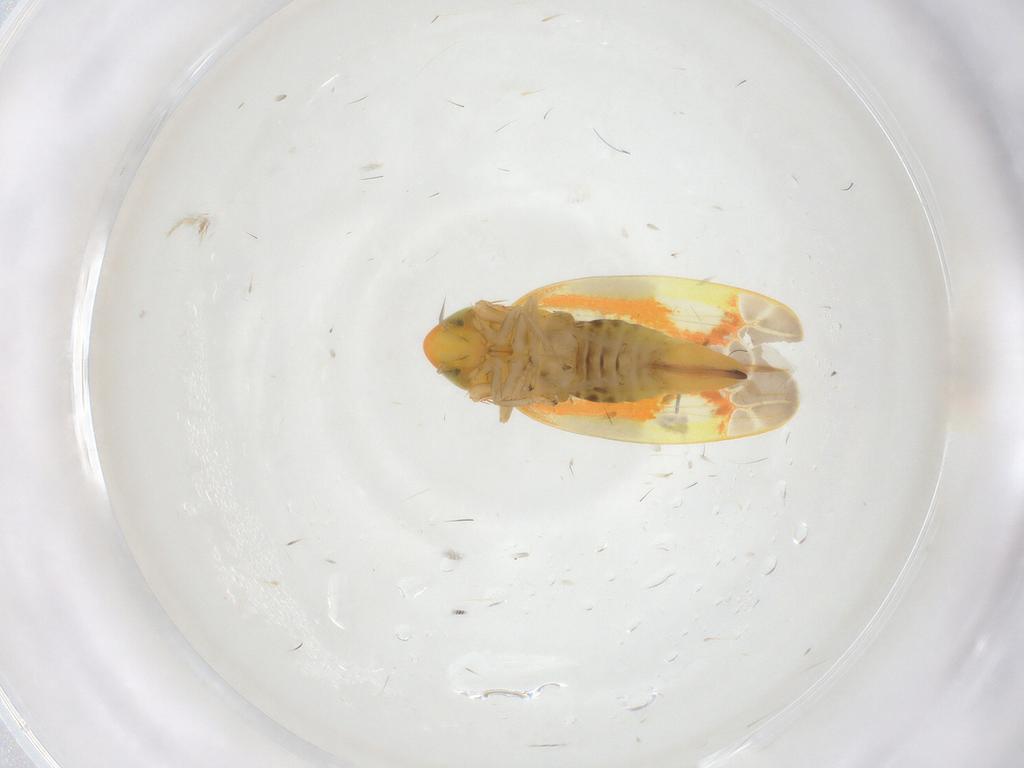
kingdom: Animalia
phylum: Arthropoda
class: Insecta
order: Hemiptera
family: Cicadellidae
